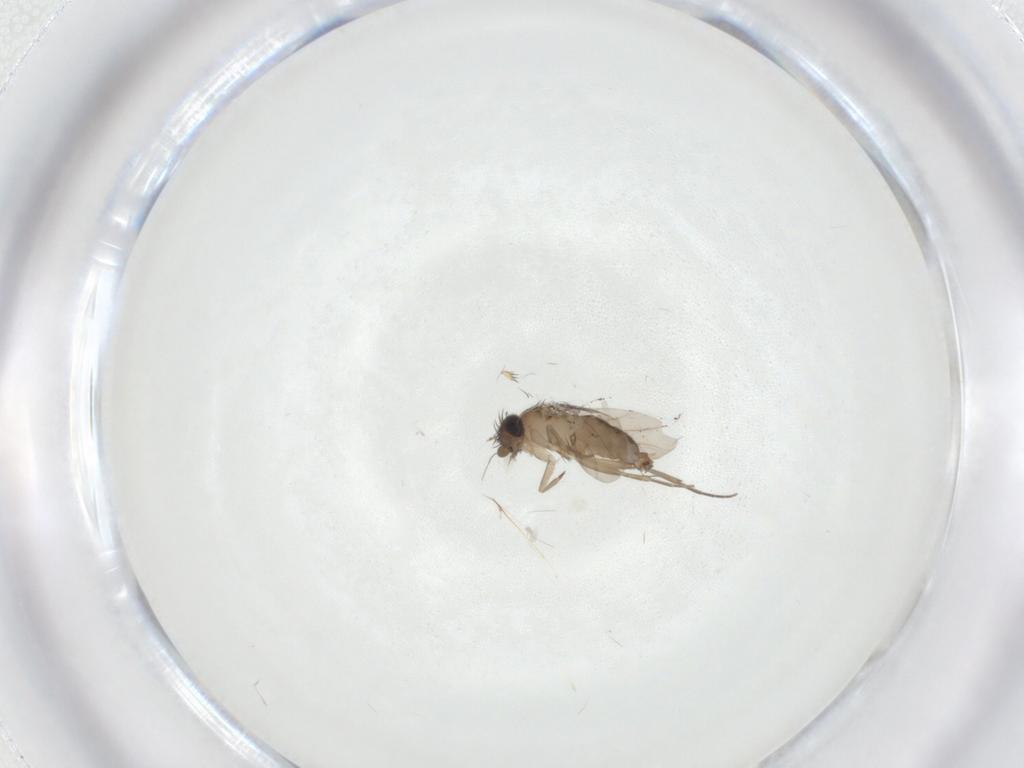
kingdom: Animalia
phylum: Arthropoda
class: Insecta
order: Diptera
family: Phoridae
